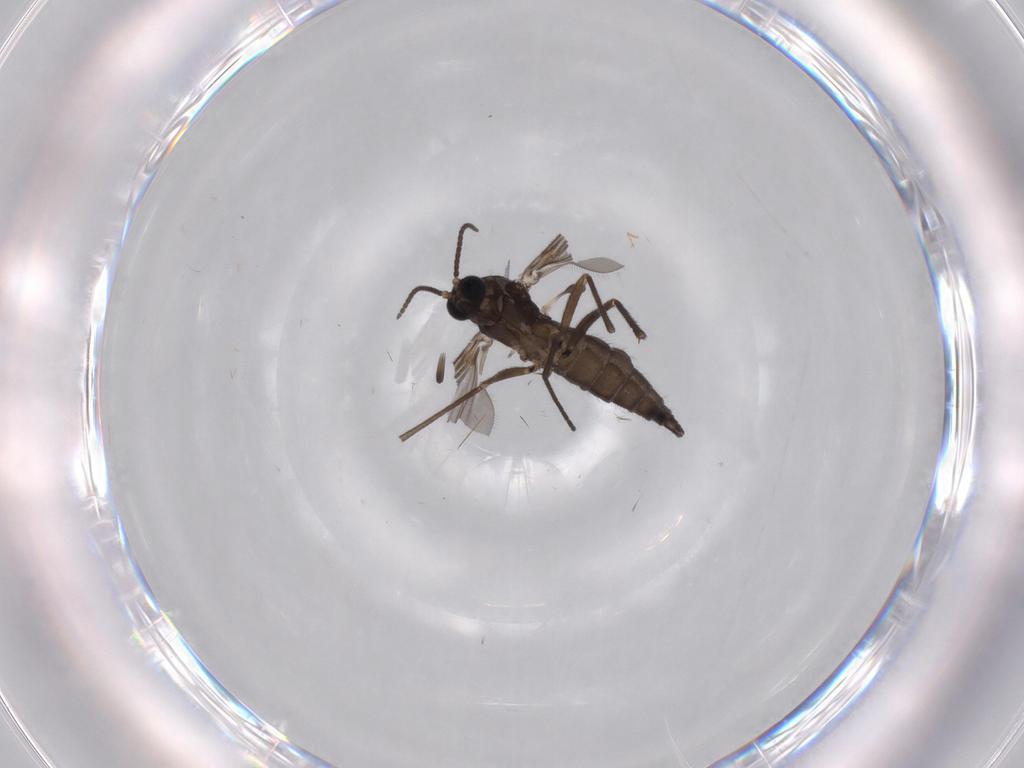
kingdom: Animalia
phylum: Arthropoda
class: Insecta
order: Diptera
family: Sciaridae
